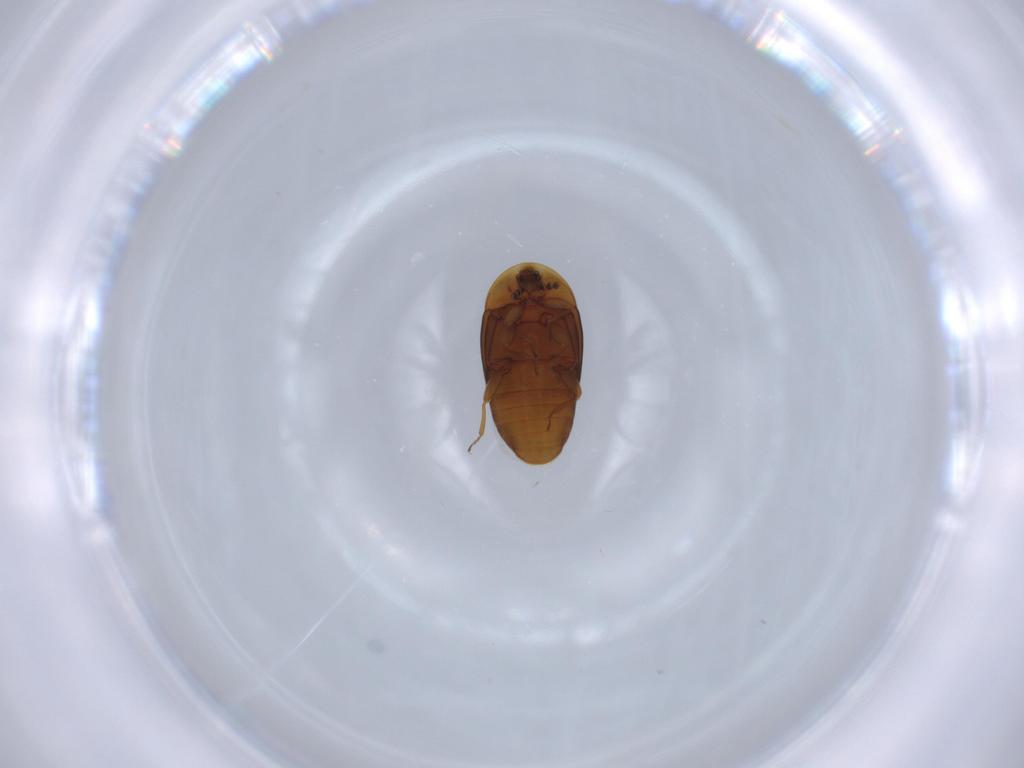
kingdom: Animalia
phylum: Arthropoda
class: Insecta
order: Coleoptera
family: Corylophidae
